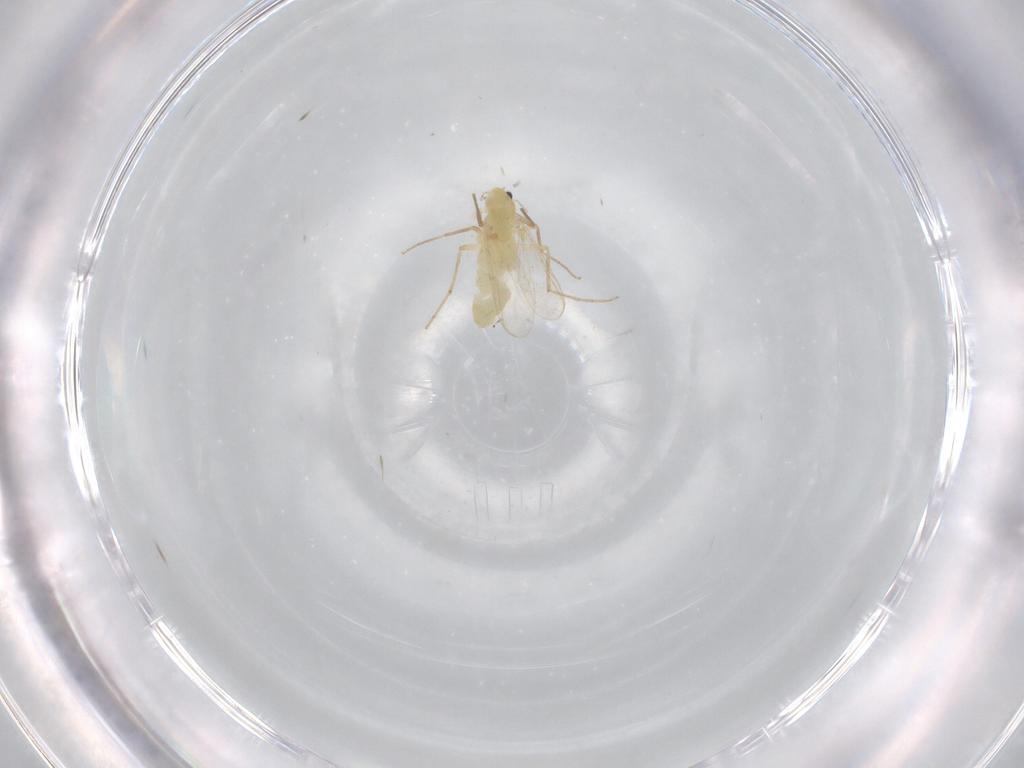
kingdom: Animalia
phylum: Arthropoda
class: Insecta
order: Diptera
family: Chironomidae
